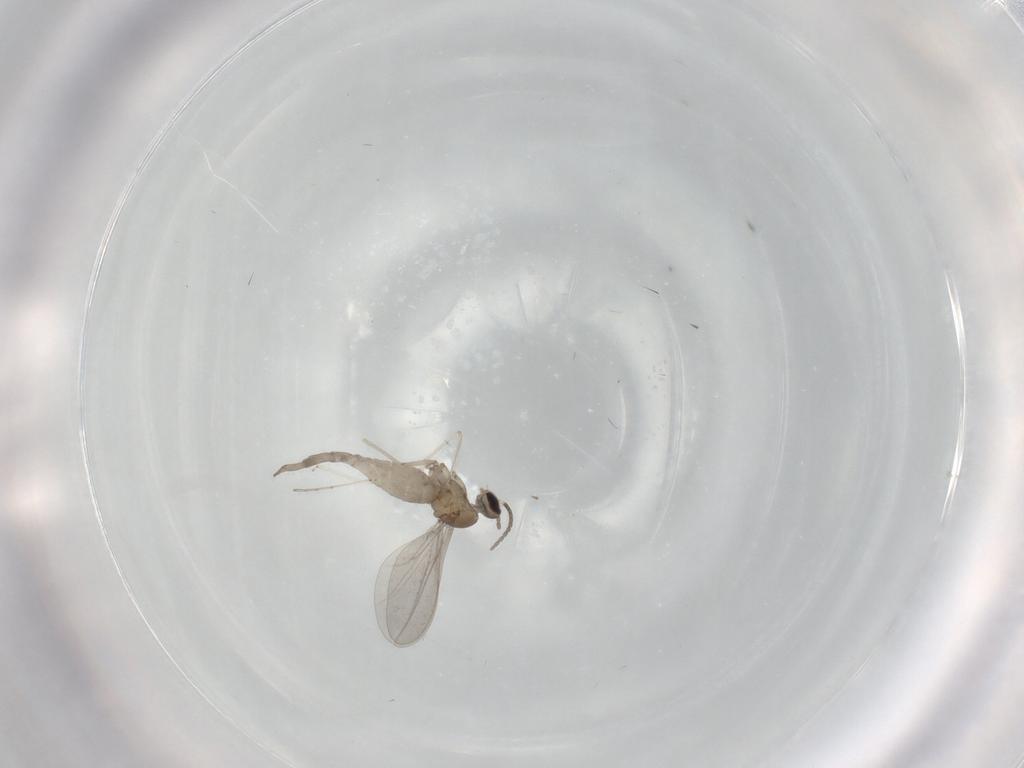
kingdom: Animalia
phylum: Arthropoda
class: Insecta
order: Diptera
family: Cecidomyiidae
